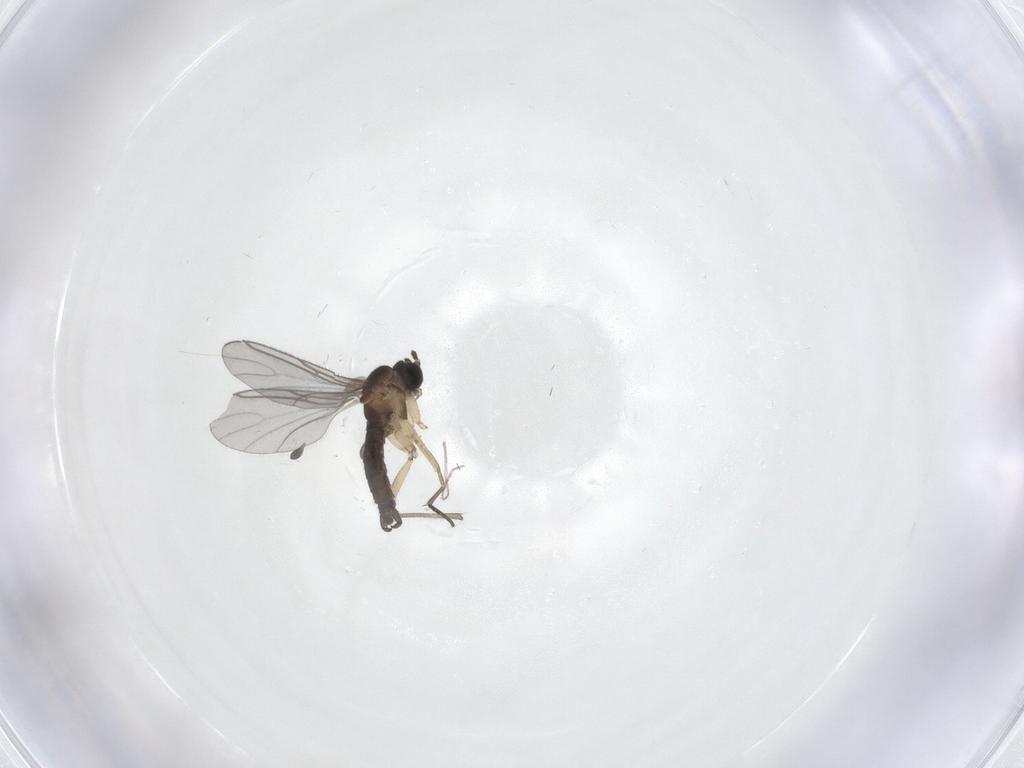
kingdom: Animalia
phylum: Arthropoda
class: Insecta
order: Diptera
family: Sciaridae
